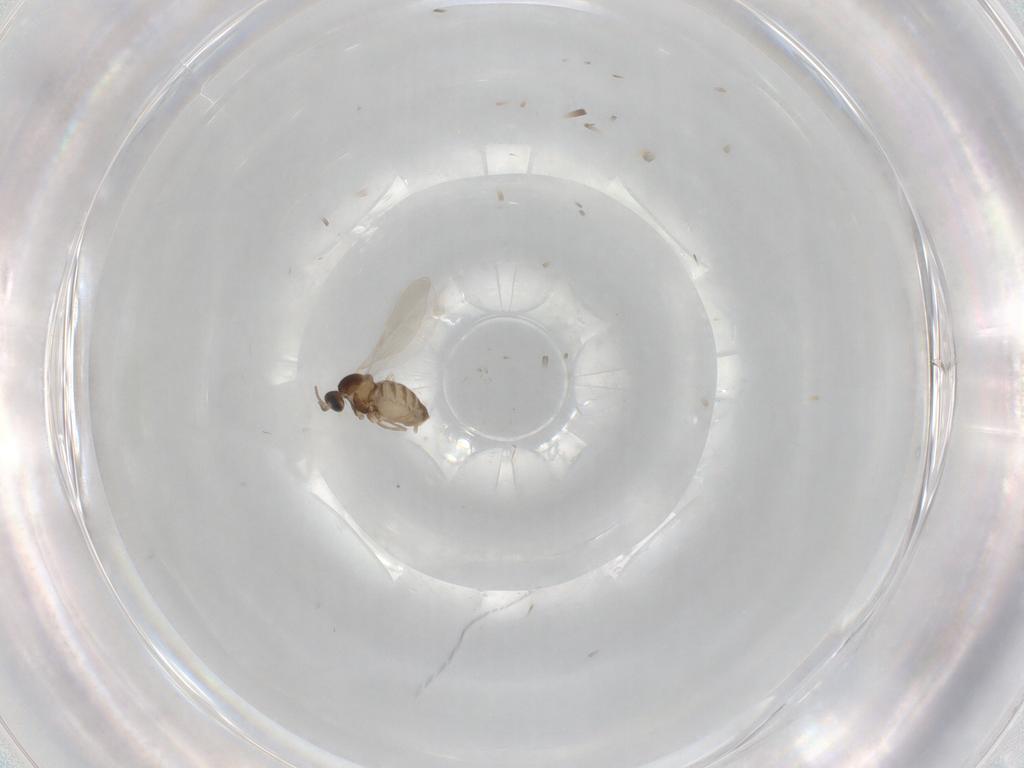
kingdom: Animalia
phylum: Arthropoda
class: Insecta
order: Diptera
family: Cecidomyiidae
